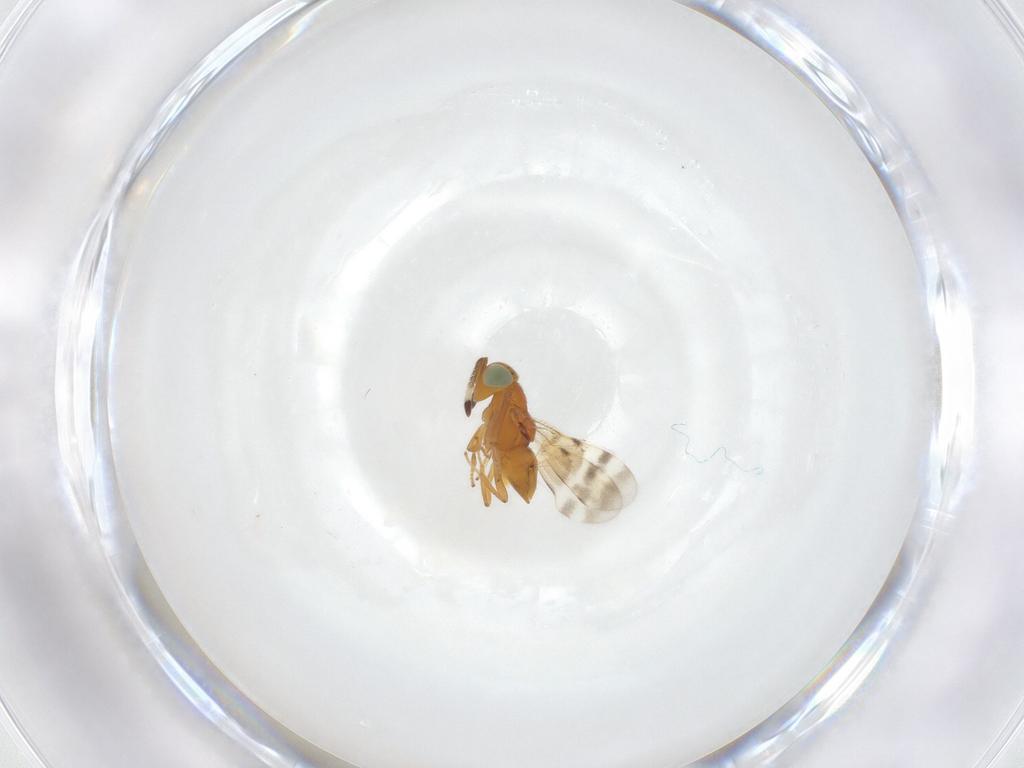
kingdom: Animalia
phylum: Arthropoda
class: Insecta
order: Hymenoptera
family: Encyrtidae
